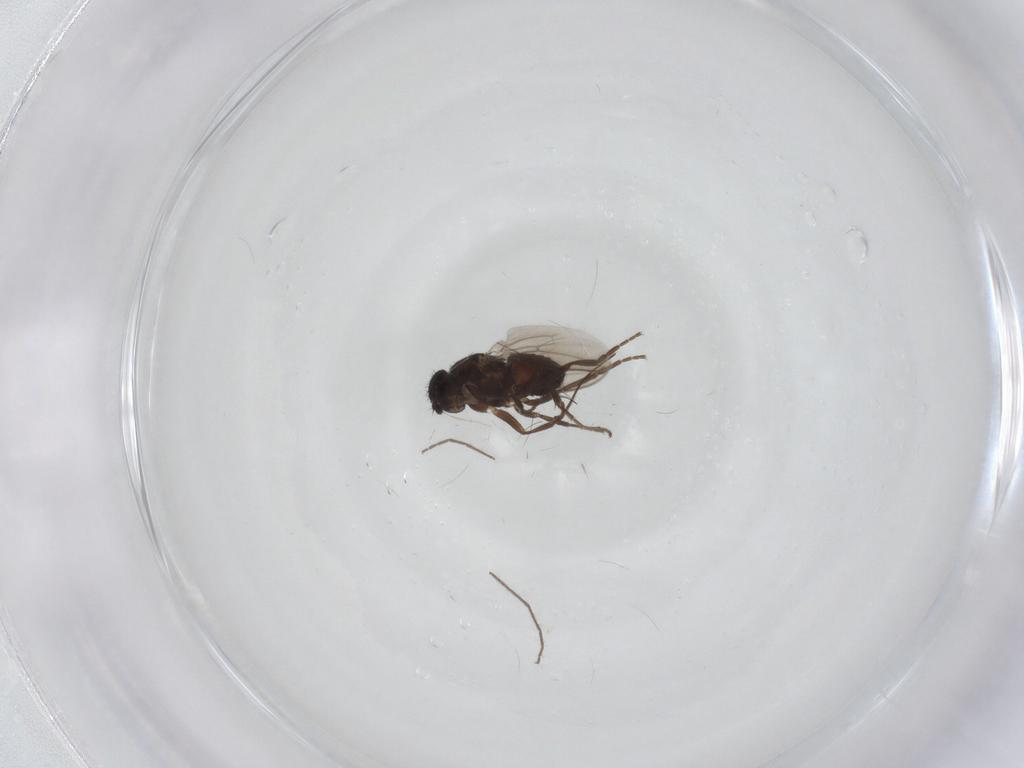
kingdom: Animalia
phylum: Arthropoda
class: Insecta
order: Diptera
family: Sphaeroceridae
